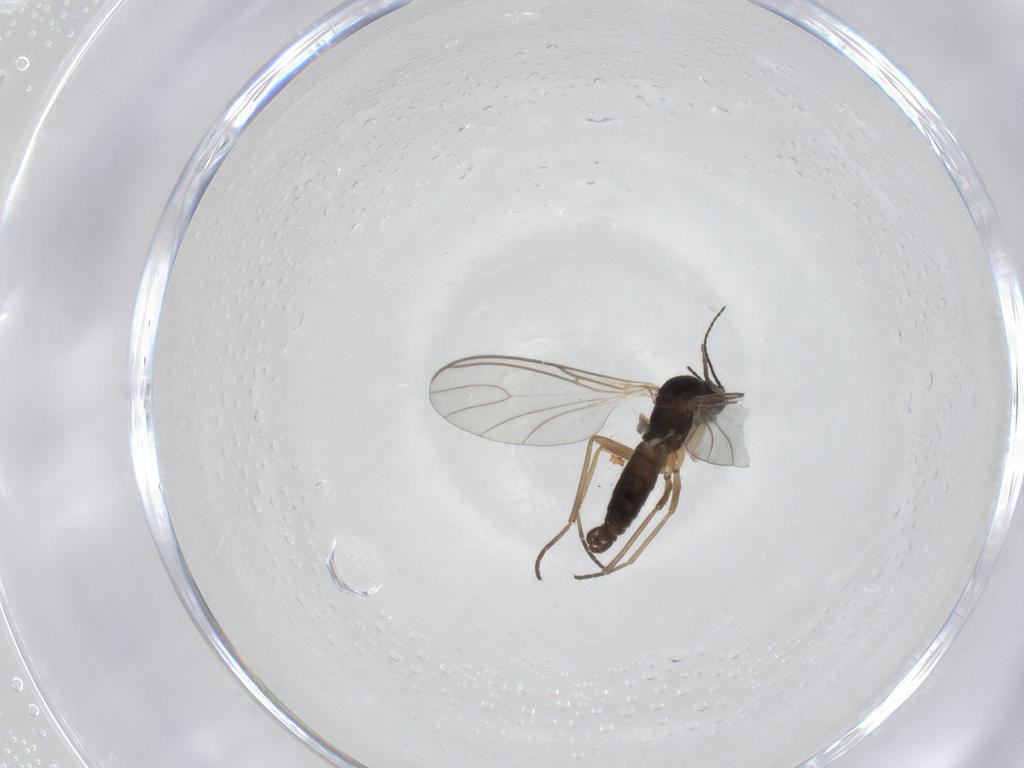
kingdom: Animalia
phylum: Arthropoda
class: Insecta
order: Diptera
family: Cecidomyiidae
